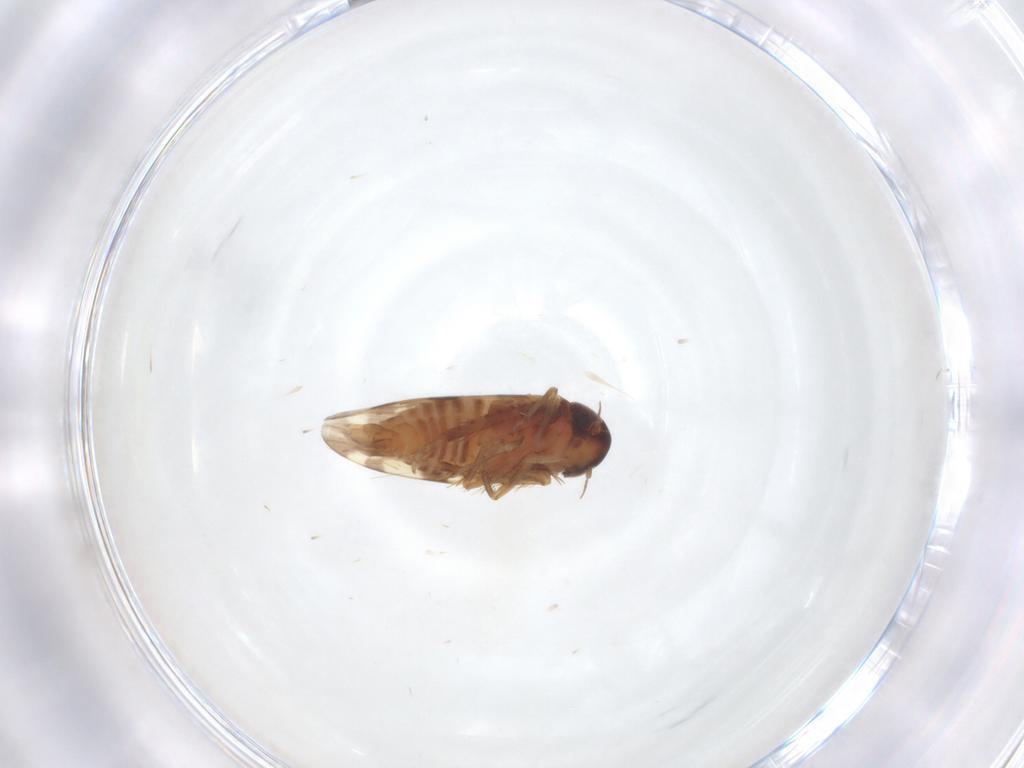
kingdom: Animalia
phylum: Arthropoda
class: Insecta
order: Hemiptera
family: Cicadellidae
